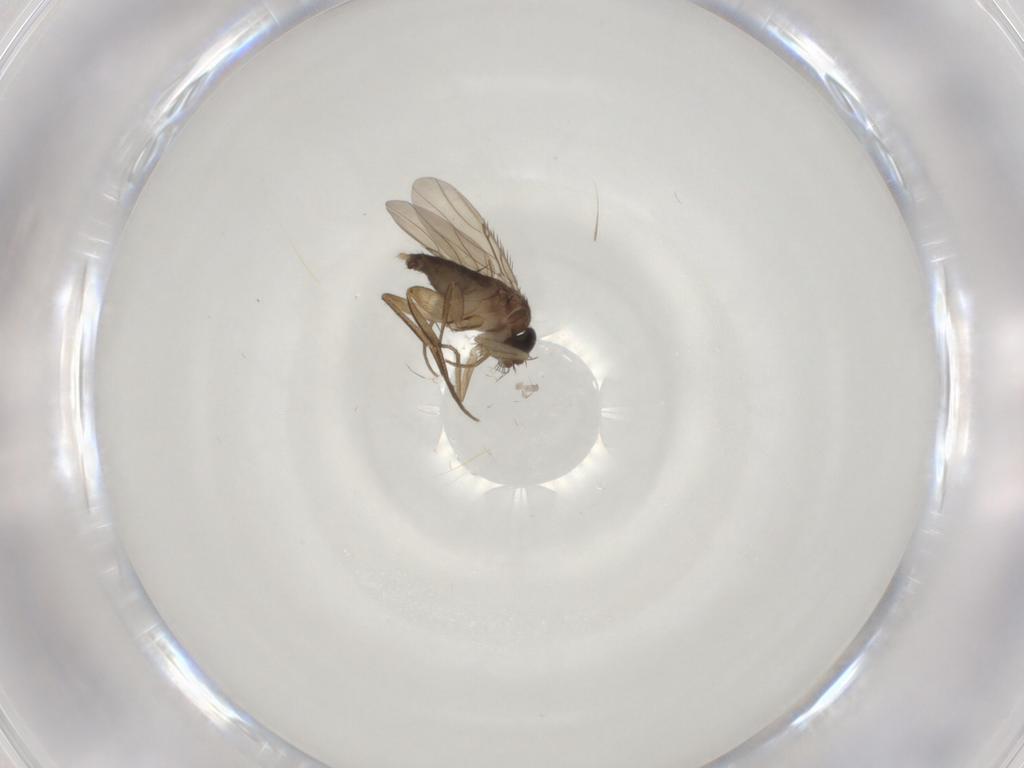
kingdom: Animalia
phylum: Arthropoda
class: Insecta
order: Diptera
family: Phoridae
